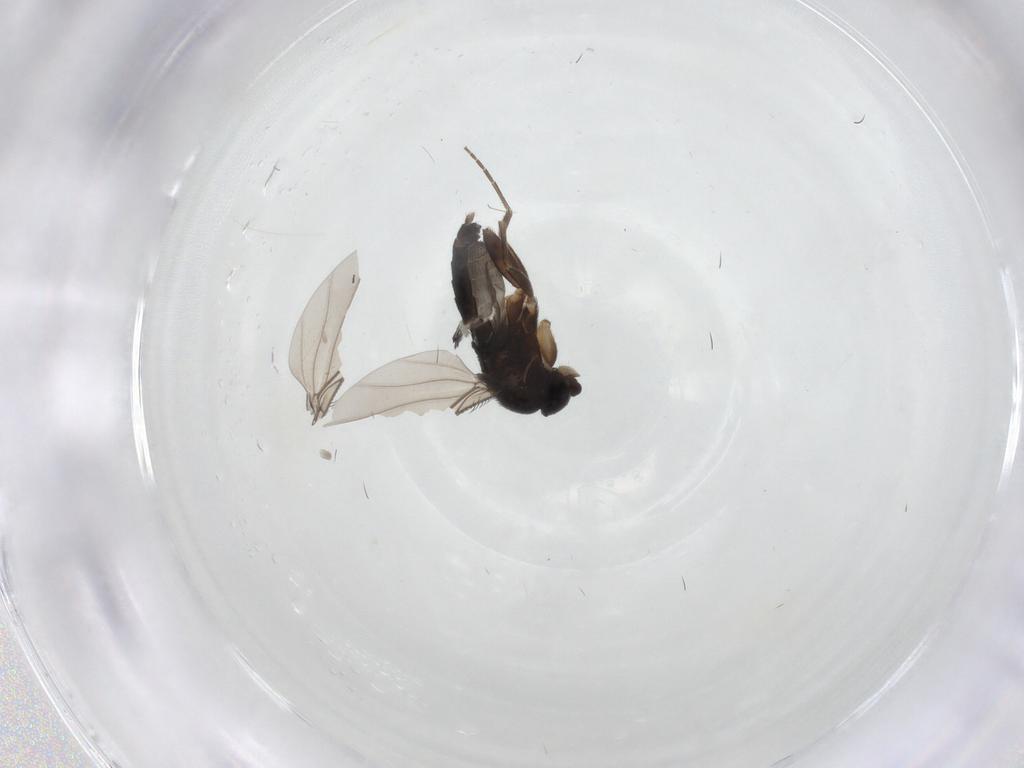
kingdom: Animalia
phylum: Arthropoda
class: Insecta
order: Diptera
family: Phoridae
